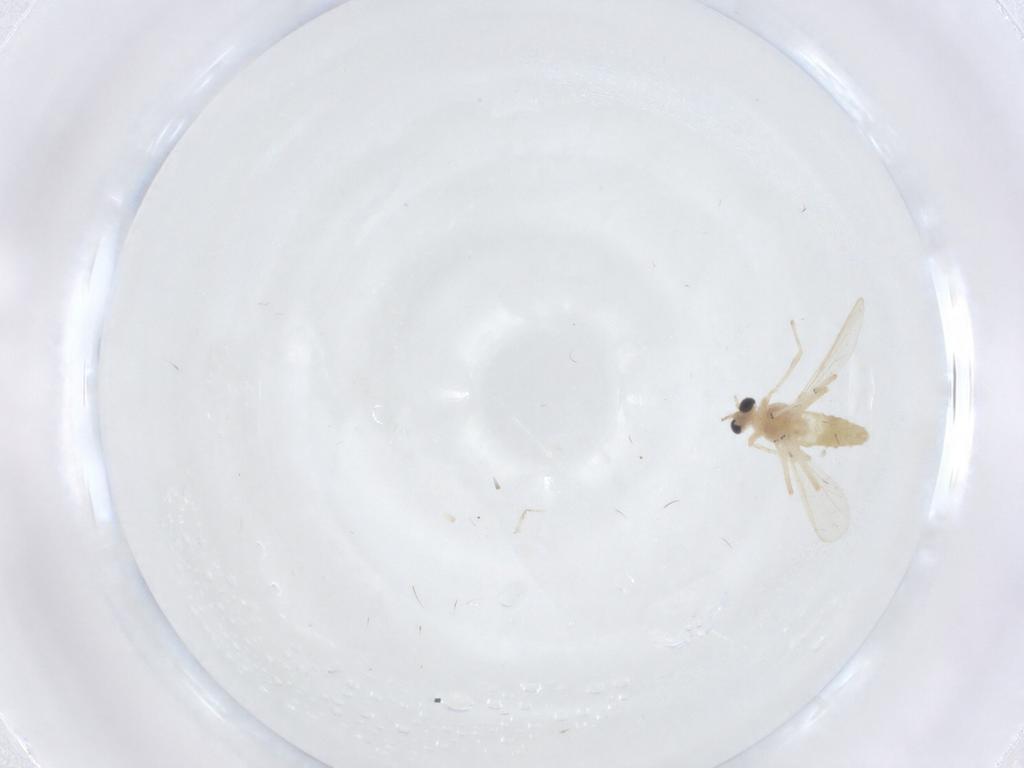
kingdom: Animalia
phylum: Arthropoda
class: Insecta
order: Diptera
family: Chironomidae
